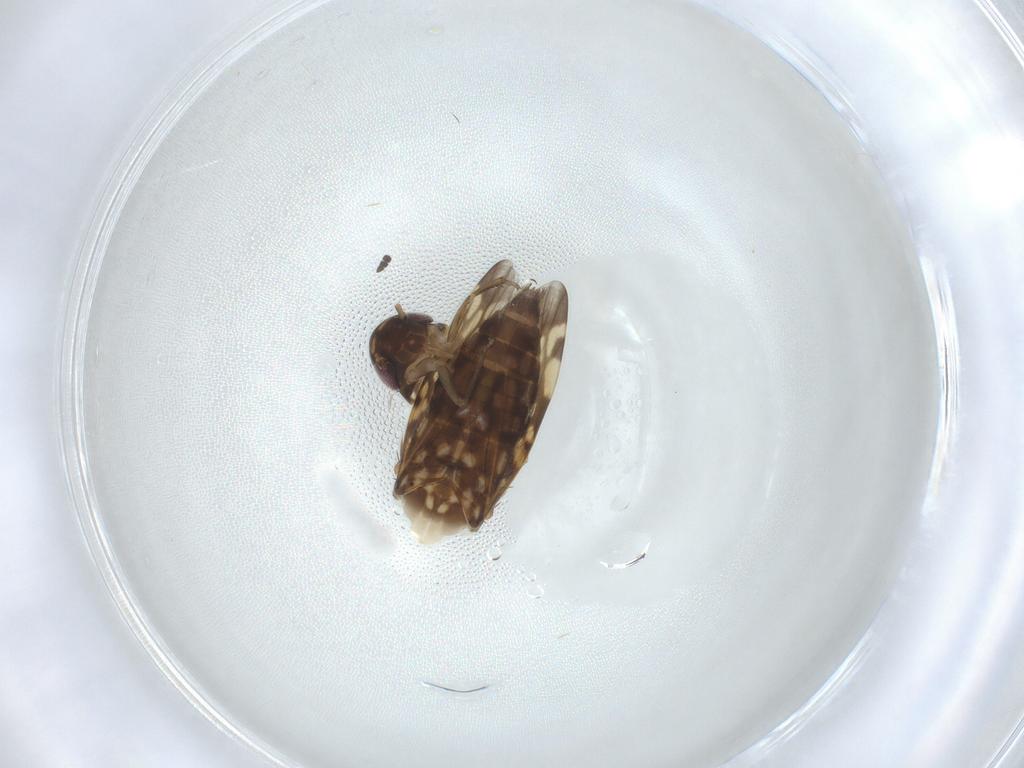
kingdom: Animalia
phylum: Arthropoda
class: Insecta
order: Hemiptera
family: Cicadellidae
